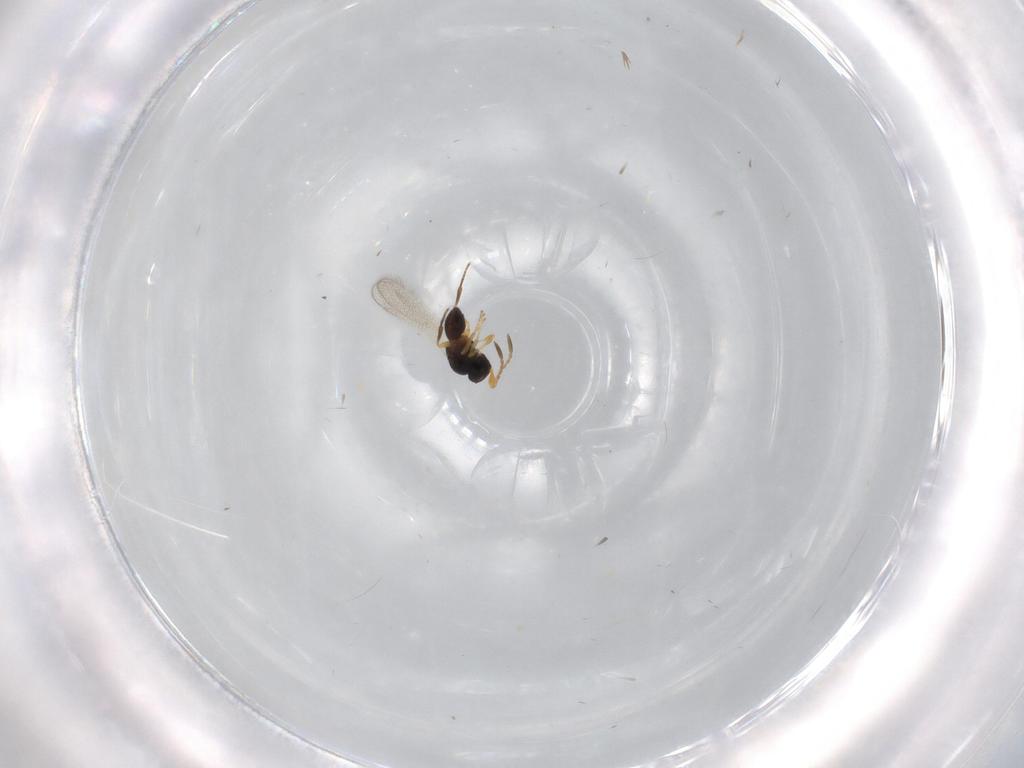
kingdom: Animalia
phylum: Arthropoda
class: Insecta
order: Hymenoptera
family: Platygastridae
